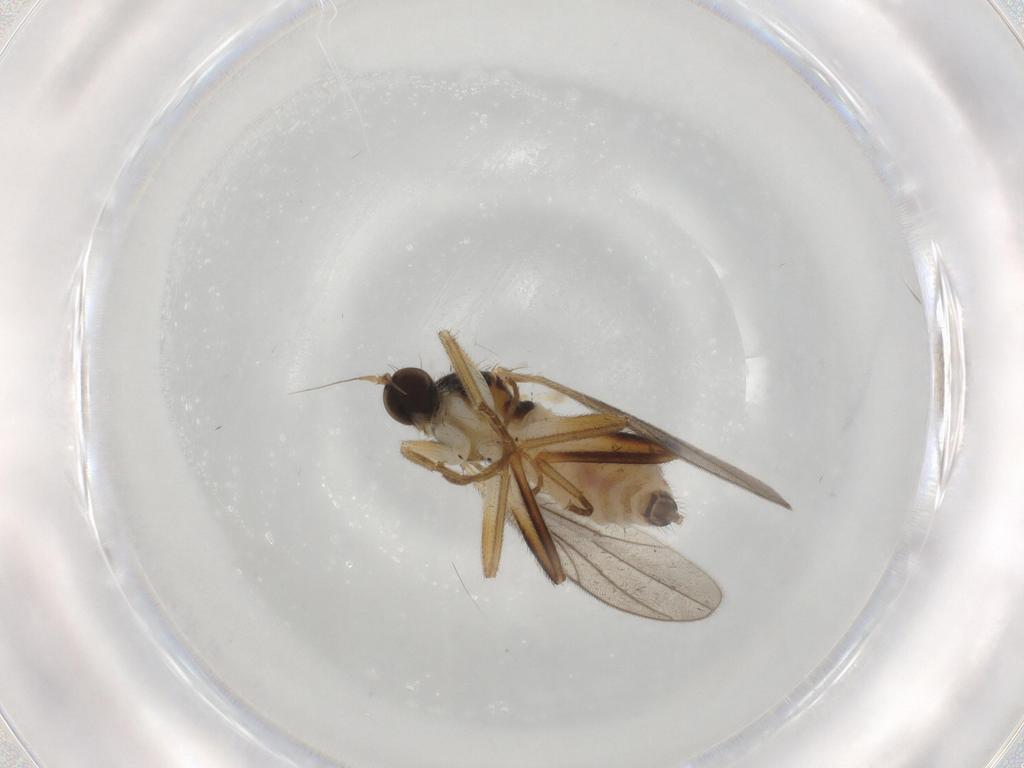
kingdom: Animalia
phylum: Arthropoda
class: Insecta
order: Diptera
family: Hybotidae
